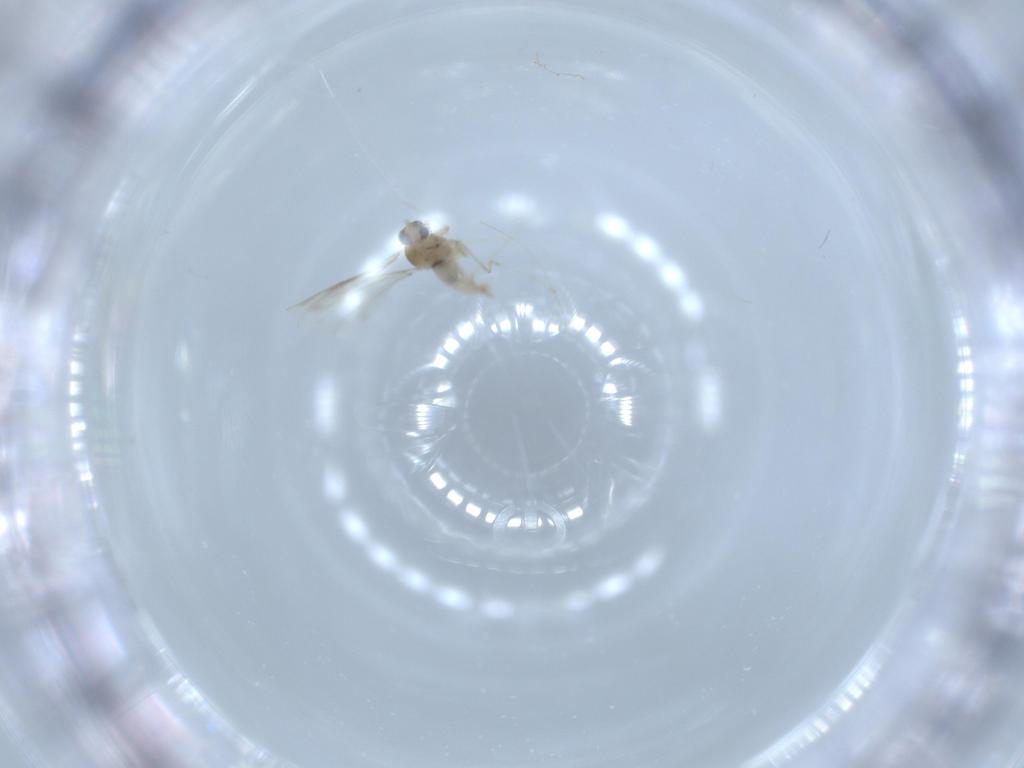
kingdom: Animalia
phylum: Arthropoda
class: Insecta
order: Diptera
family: Cecidomyiidae
